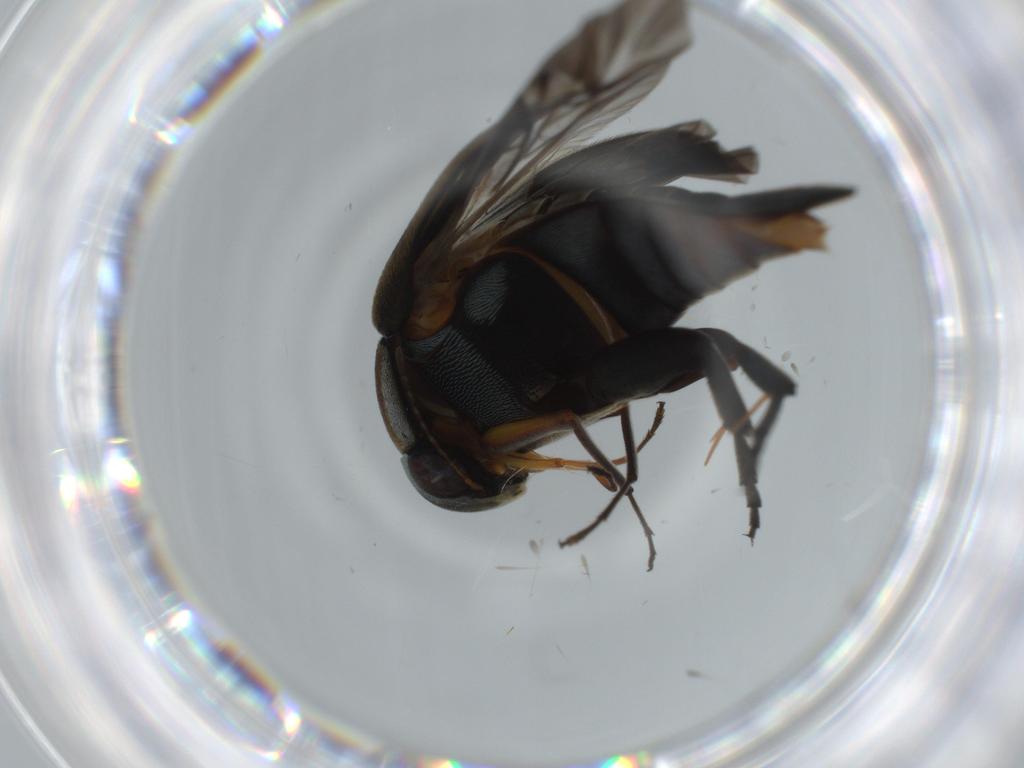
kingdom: Animalia
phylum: Arthropoda
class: Insecta
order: Coleoptera
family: Mordellidae
